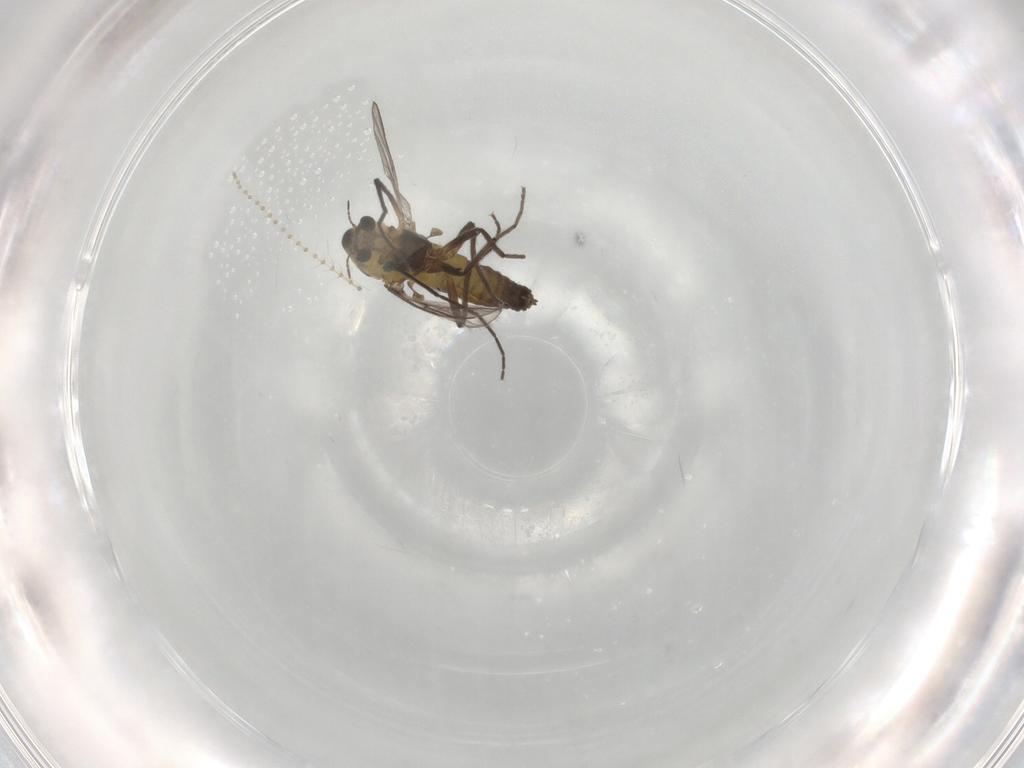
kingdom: Animalia
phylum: Arthropoda
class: Insecta
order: Diptera
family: Chironomidae
